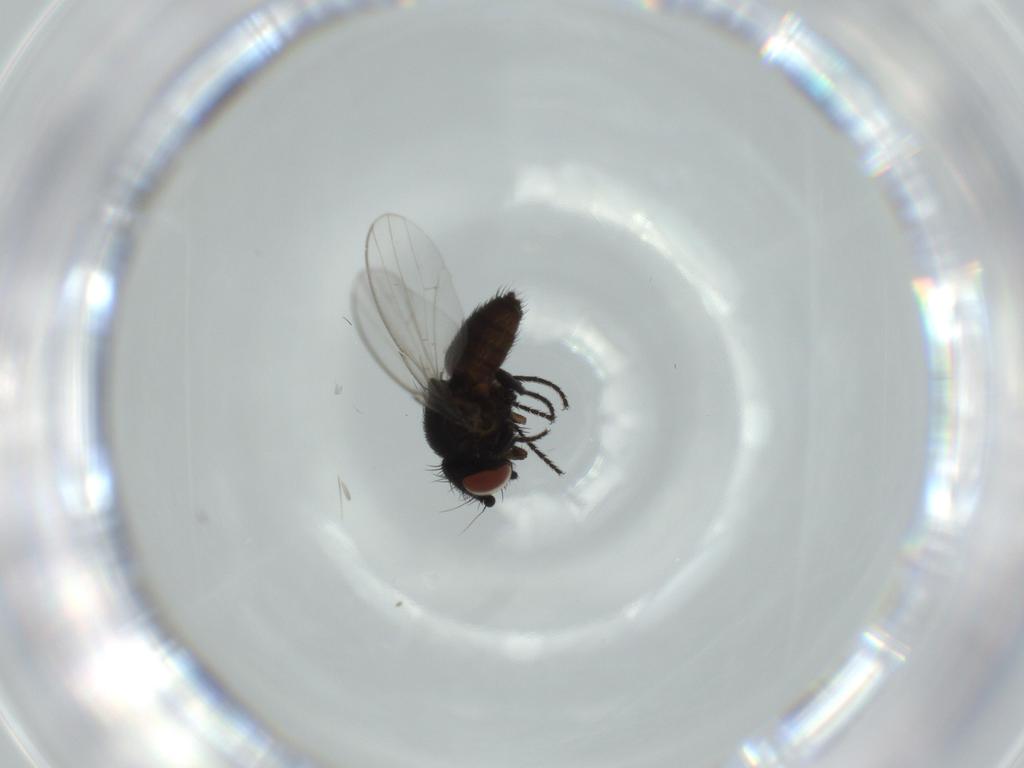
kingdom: Animalia
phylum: Arthropoda
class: Insecta
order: Diptera
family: Milichiidae
